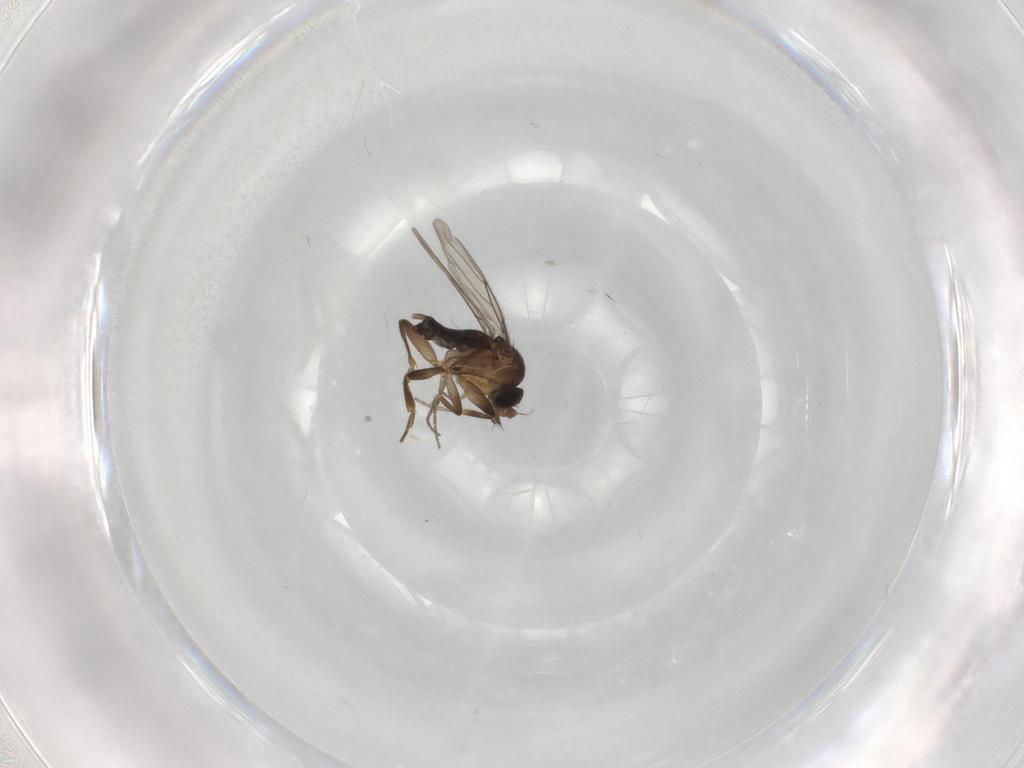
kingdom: Animalia
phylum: Arthropoda
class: Insecta
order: Diptera
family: Phoridae
